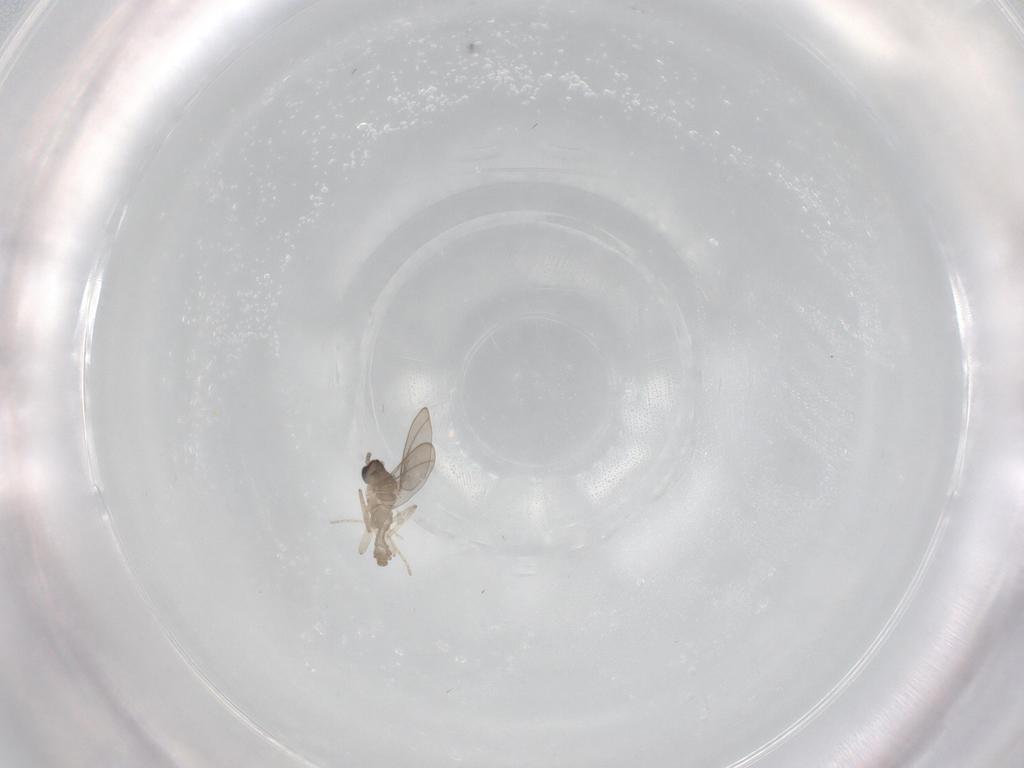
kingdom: Animalia
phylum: Arthropoda
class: Insecta
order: Diptera
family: Cecidomyiidae
